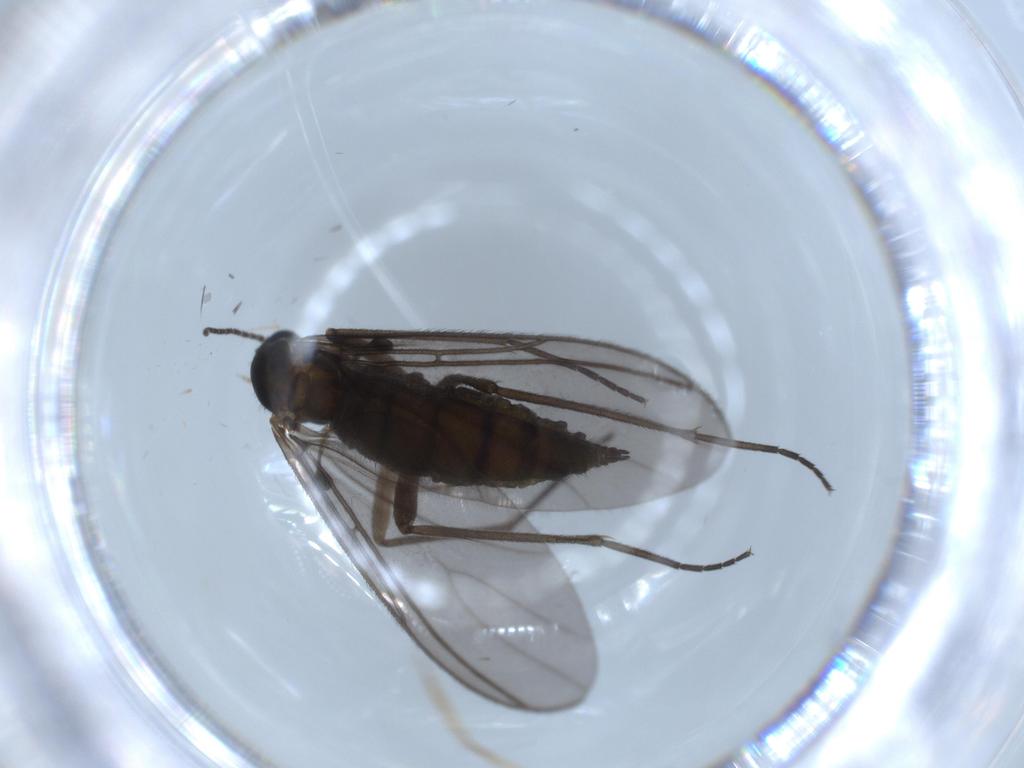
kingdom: Animalia
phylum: Arthropoda
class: Insecta
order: Diptera
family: Sciaridae
